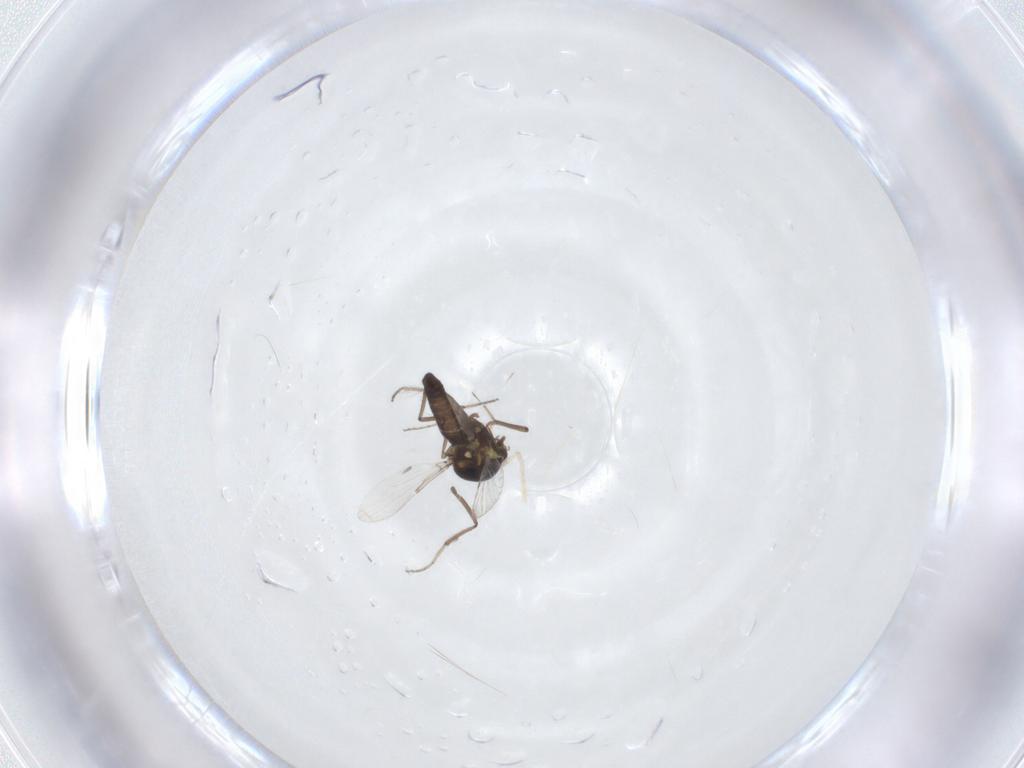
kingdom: Animalia
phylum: Arthropoda
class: Insecta
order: Diptera
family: Ceratopogonidae
